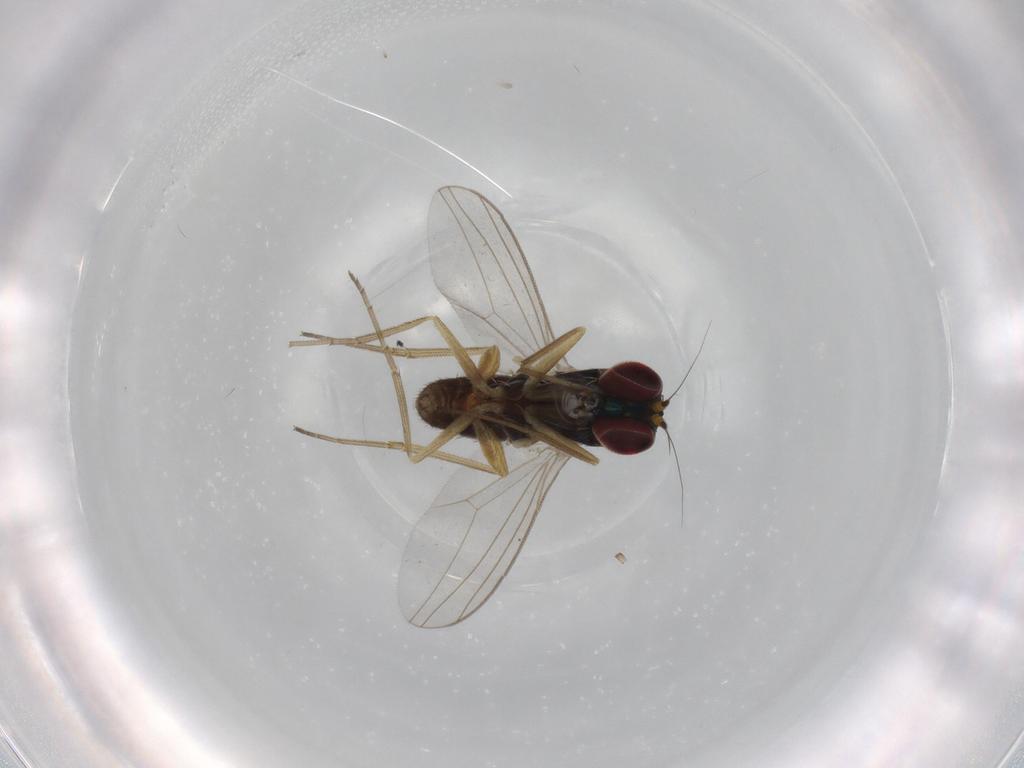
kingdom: Animalia
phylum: Arthropoda
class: Insecta
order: Diptera
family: Dolichopodidae
